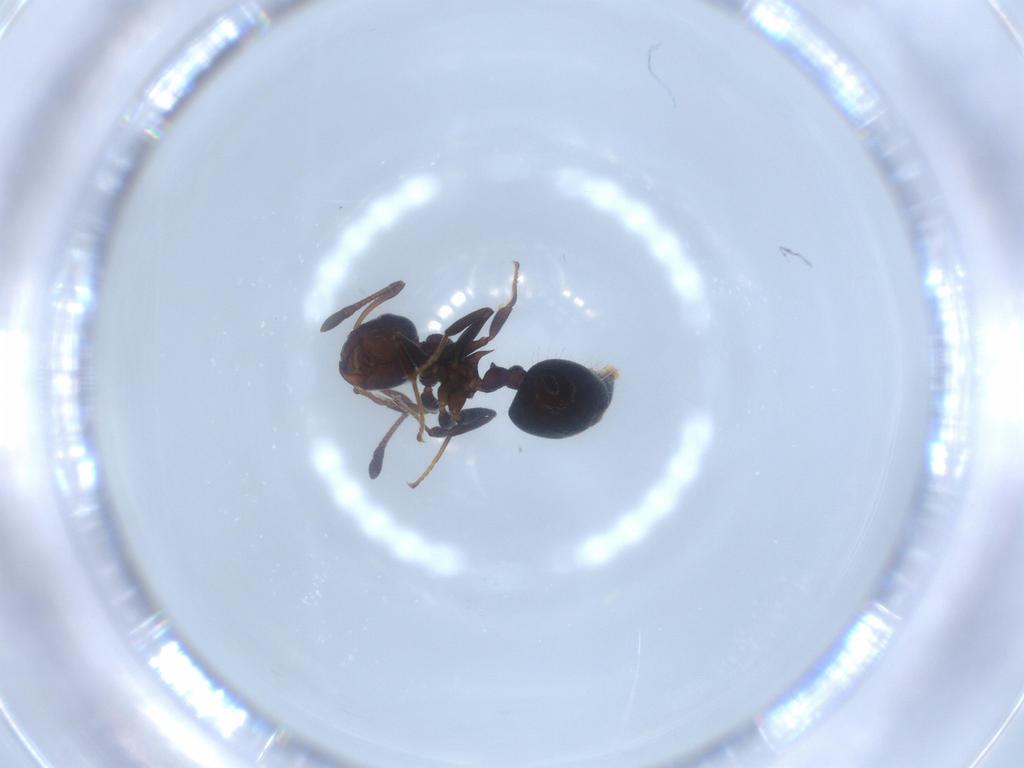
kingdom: Animalia
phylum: Arthropoda
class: Insecta
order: Hymenoptera
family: Formicidae
